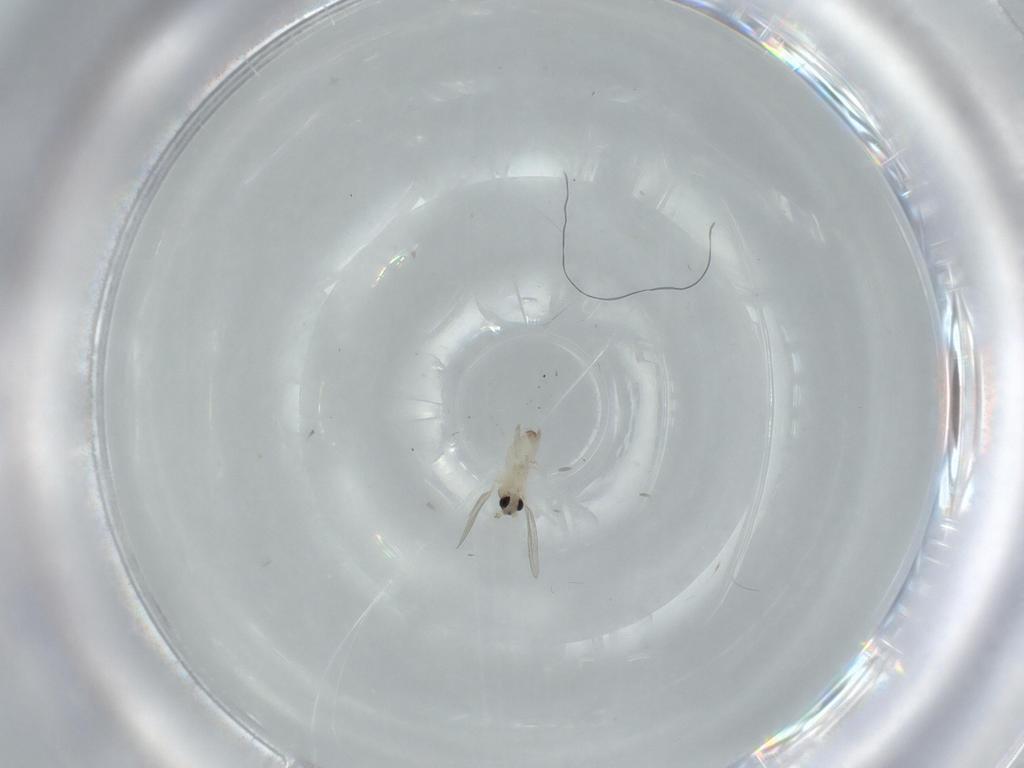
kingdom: Animalia
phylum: Arthropoda
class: Insecta
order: Diptera
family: Cecidomyiidae
